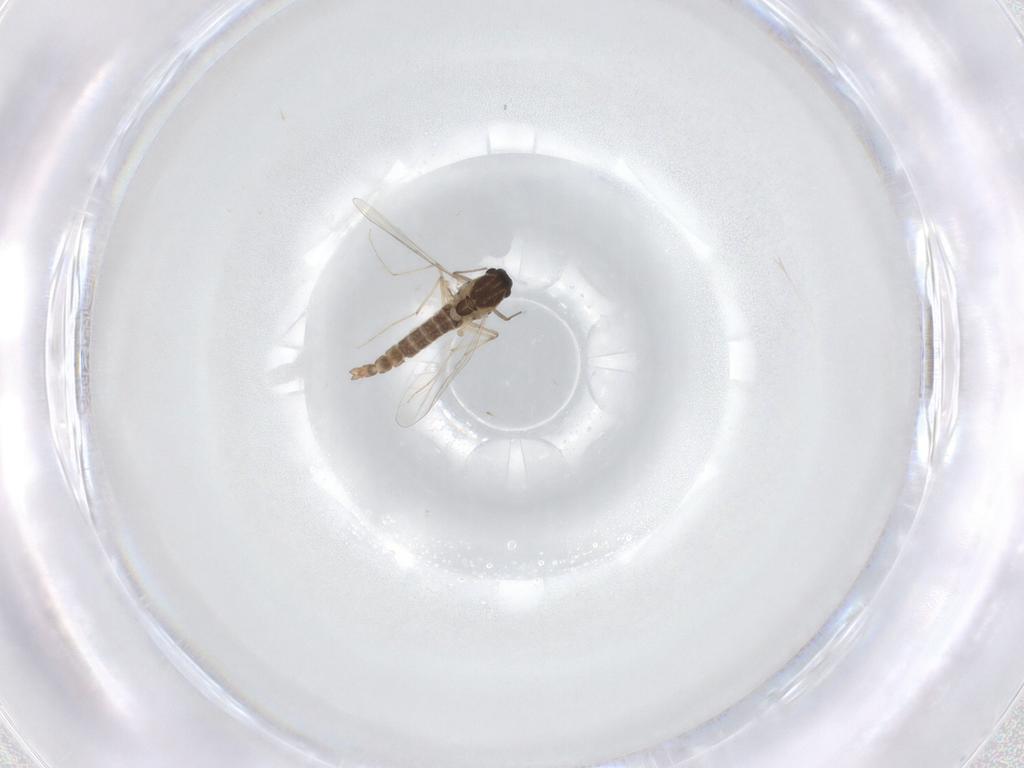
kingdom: Animalia
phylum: Arthropoda
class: Insecta
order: Diptera
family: Chironomidae
